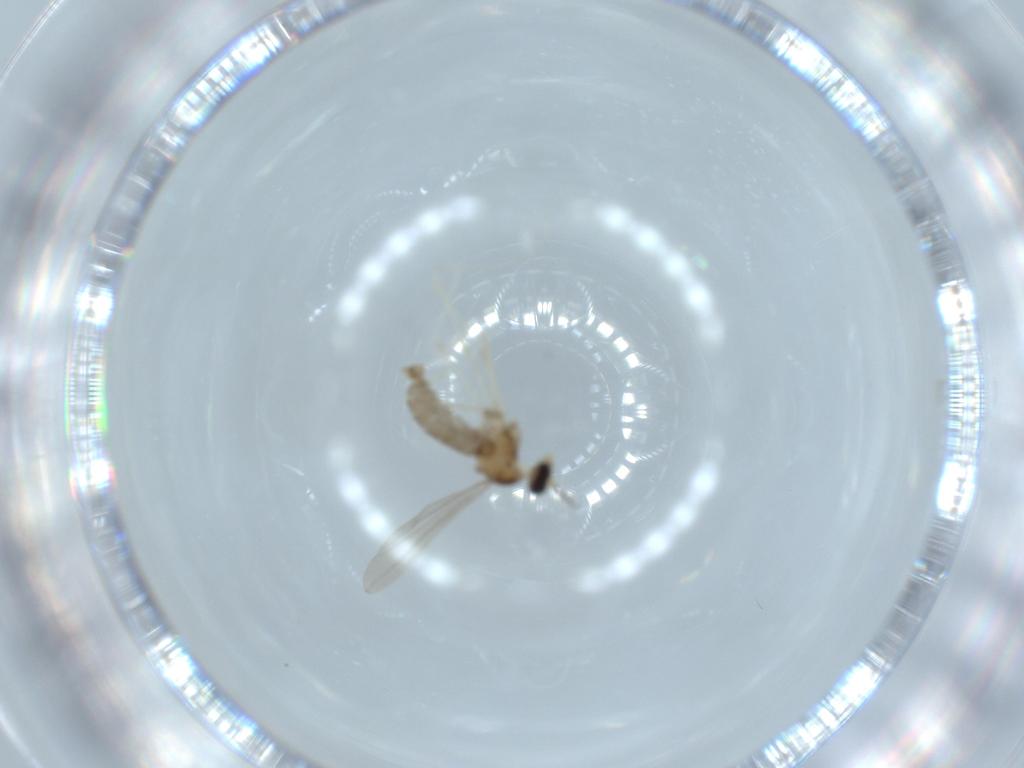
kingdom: Animalia
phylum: Arthropoda
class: Insecta
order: Diptera
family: Cecidomyiidae
